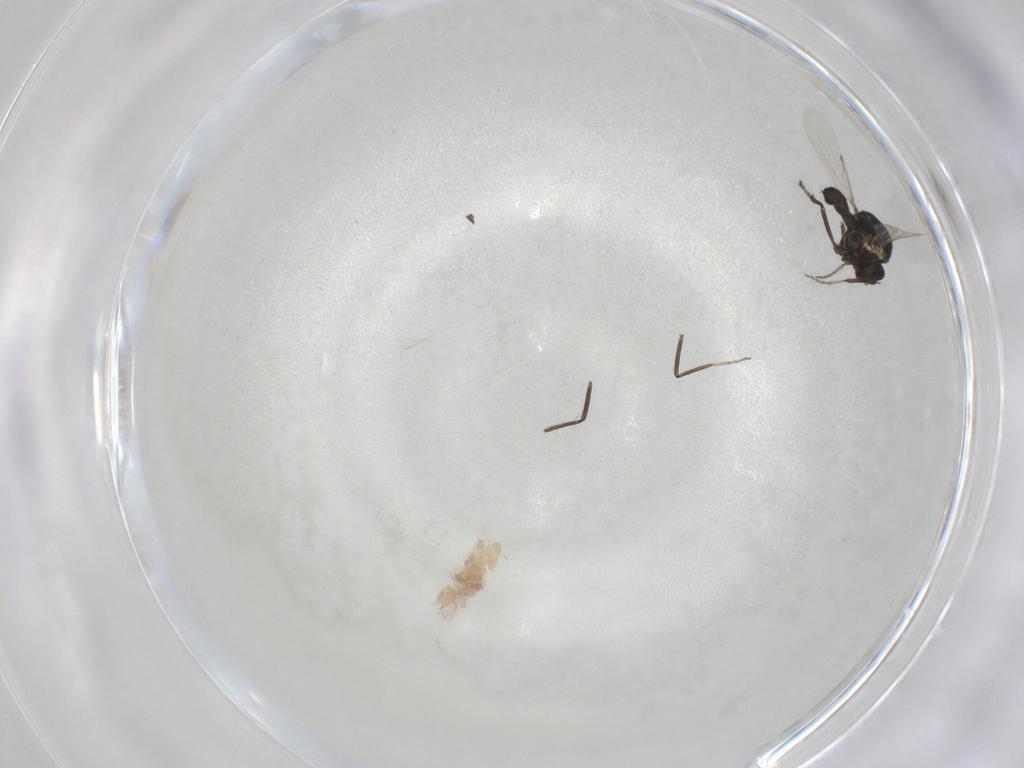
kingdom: Animalia
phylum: Arthropoda
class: Insecta
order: Diptera
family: Ceratopogonidae
